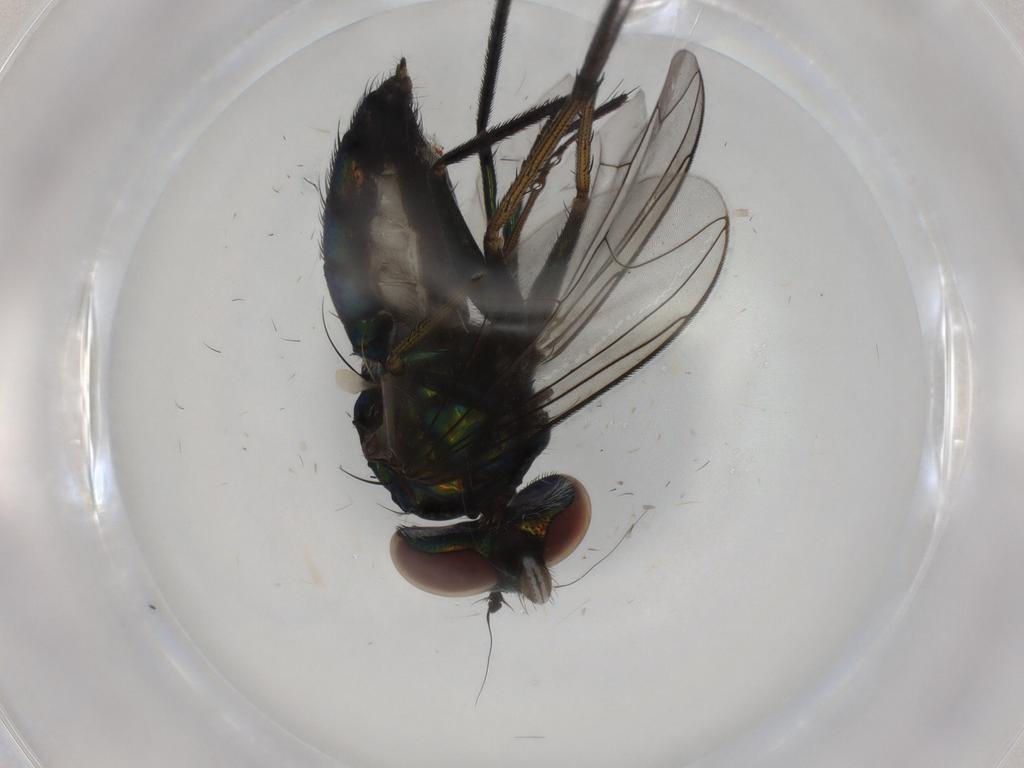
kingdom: Animalia
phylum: Arthropoda
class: Insecta
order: Diptera
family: Dolichopodidae
